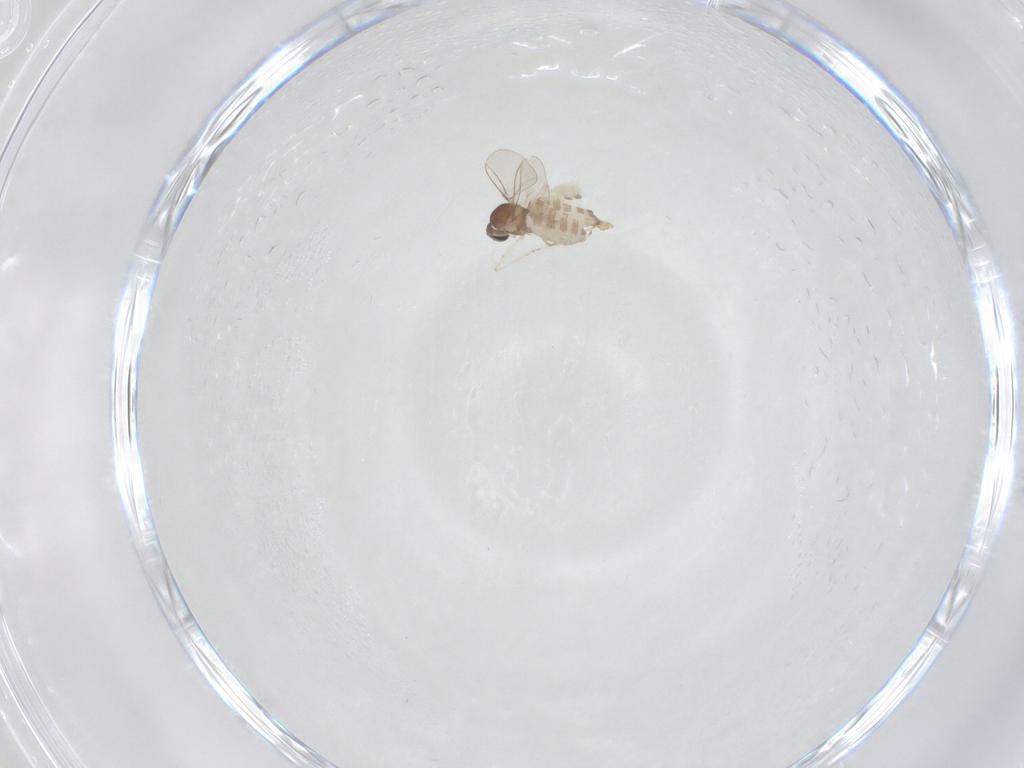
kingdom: Animalia
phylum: Arthropoda
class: Insecta
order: Diptera
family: Cecidomyiidae
